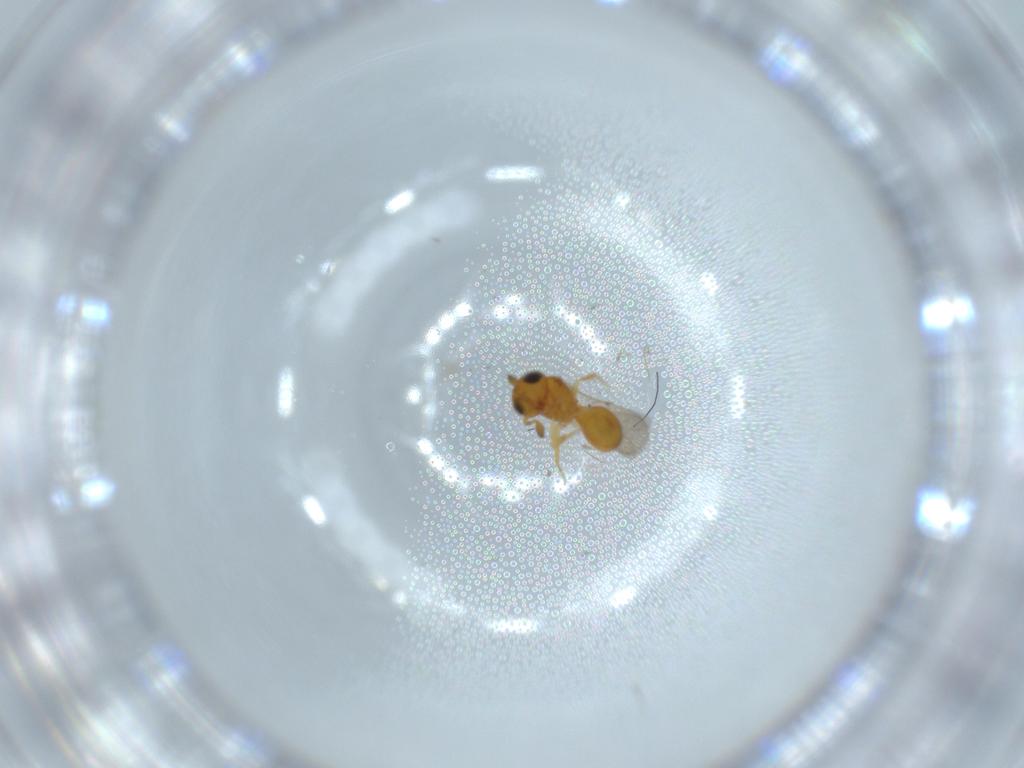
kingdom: Animalia
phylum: Arthropoda
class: Insecta
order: Hymenoptera
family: Scelionidae
